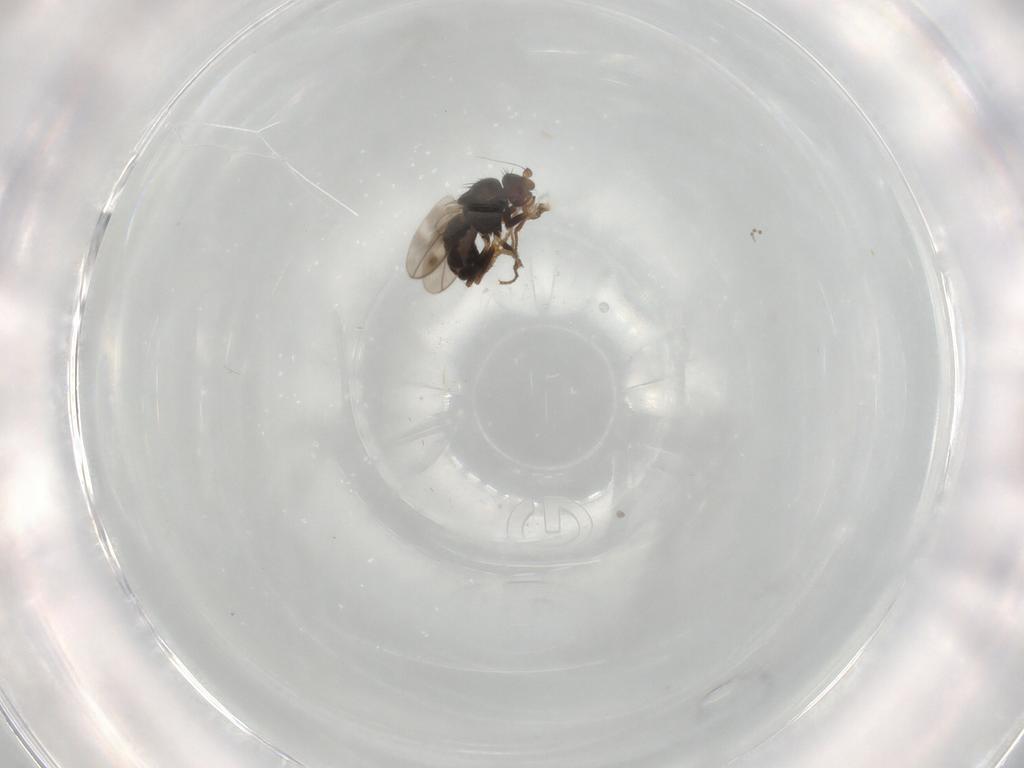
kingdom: Animalia
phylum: Arthropoda
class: Insecta
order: Diptera
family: Sphaeroceridae
